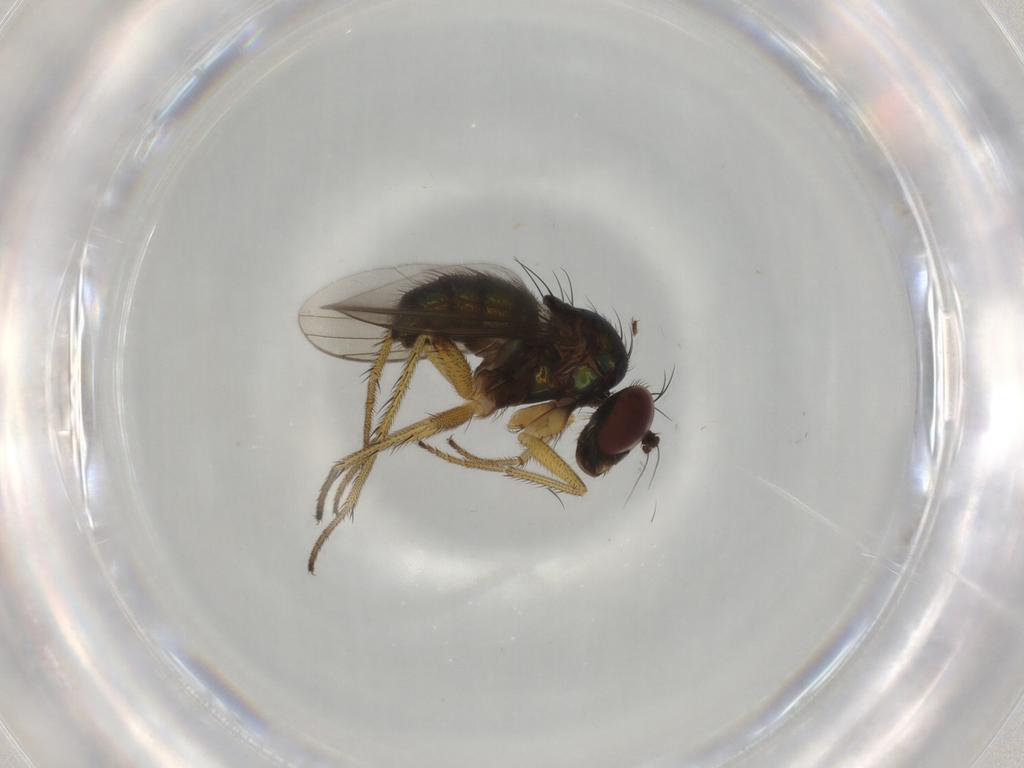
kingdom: Animalia
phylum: Arthropoda
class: Insecta
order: Diptera
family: Dolichopodidae
